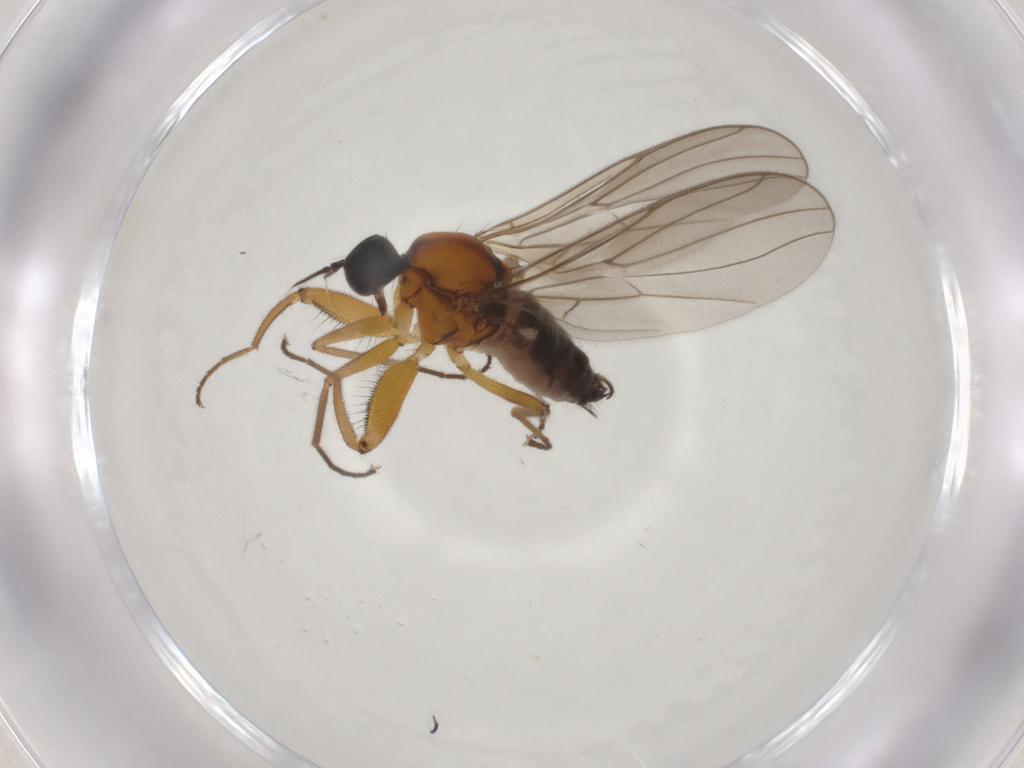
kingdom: Animalia
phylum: Arthropoda
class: Insecta
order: Diptera
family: Hybotidae
